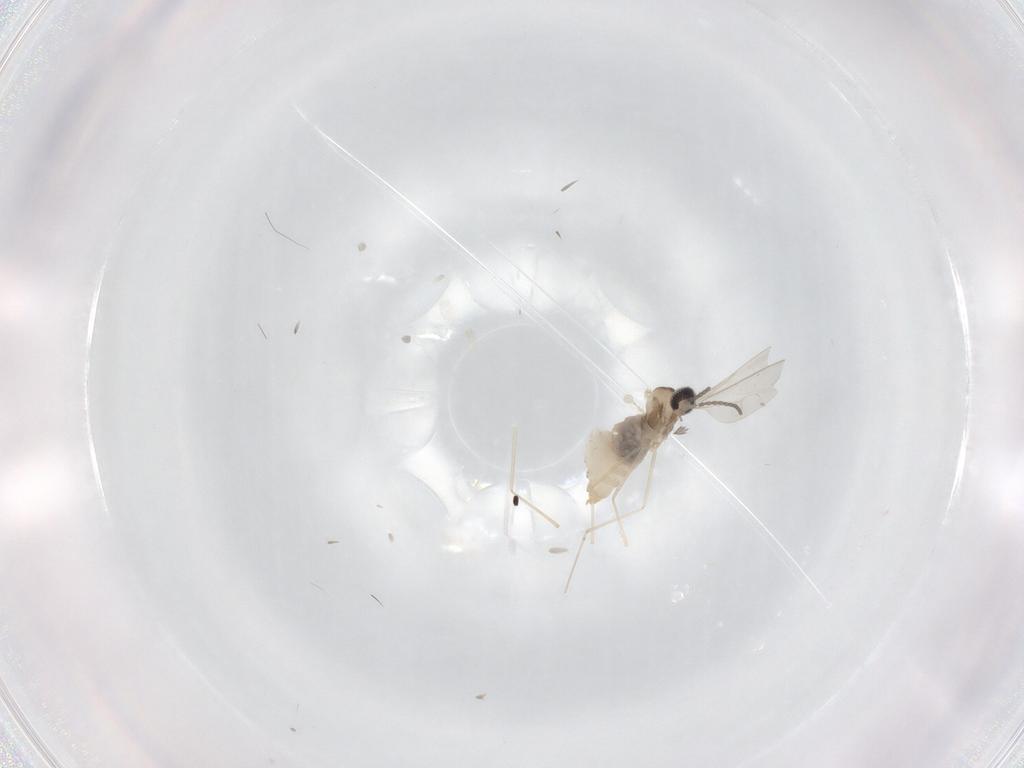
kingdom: Animalia
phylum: Arthropoda
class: Insecta
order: Diptera
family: Cecidomyiidae
